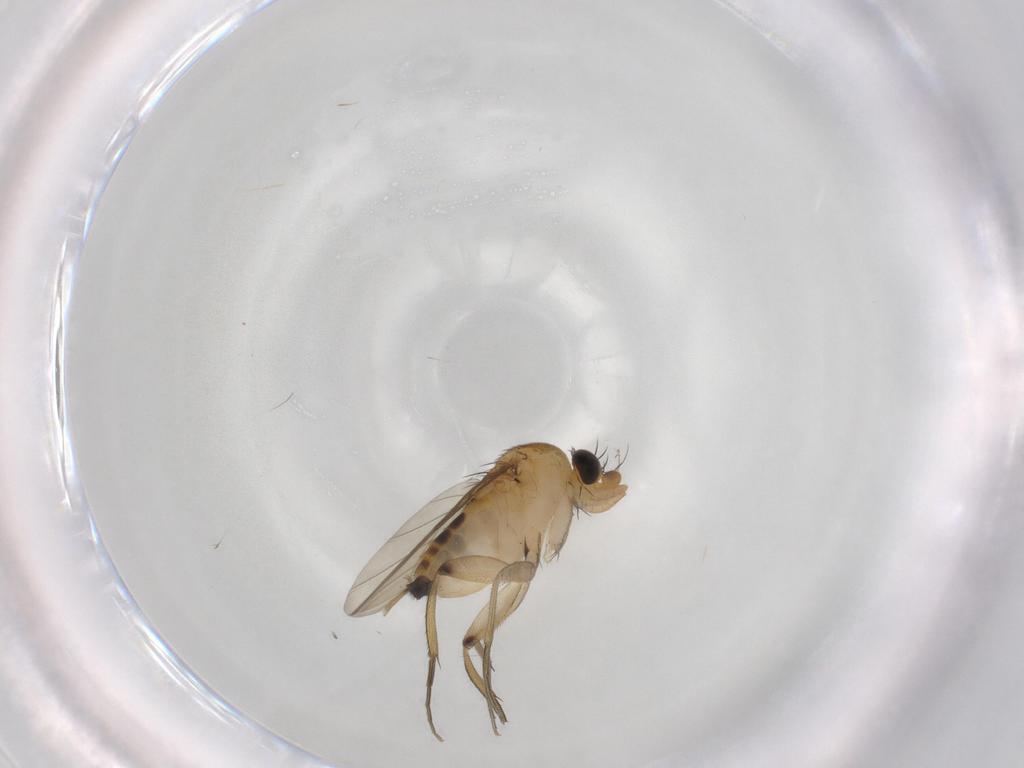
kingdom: Animalia
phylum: Arthropoda
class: Insecta
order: Diptera
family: Phoridae
